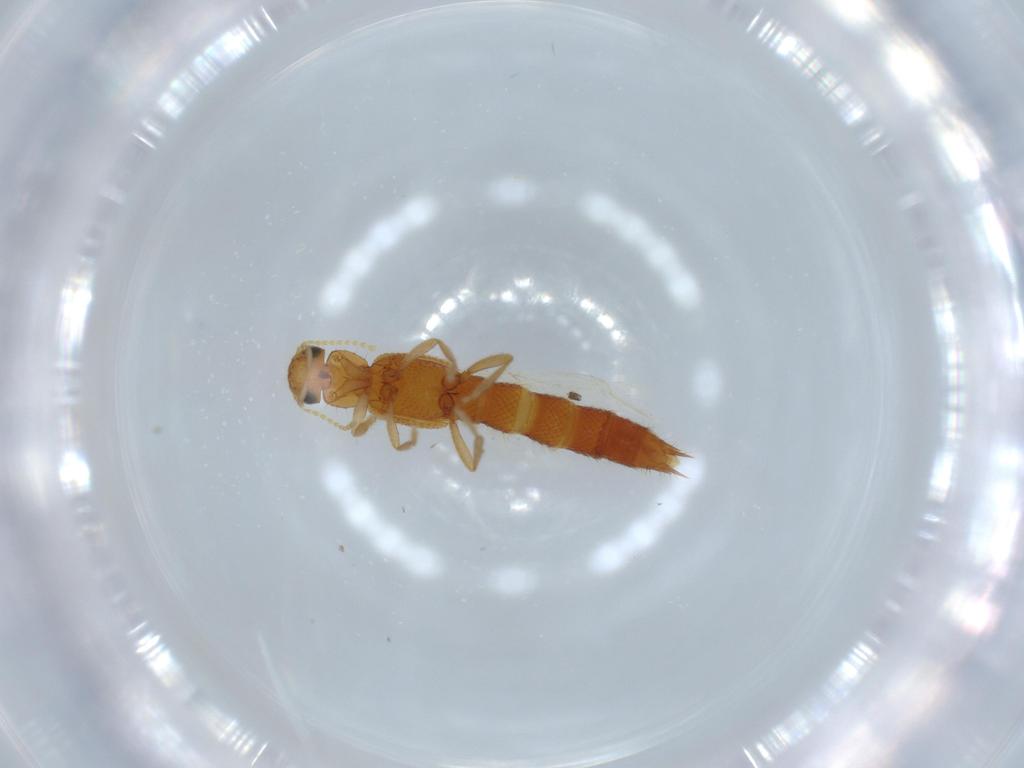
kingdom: Animalia
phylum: Arthropoda
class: Insecta
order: Coleoptera
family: Staphylinidae
